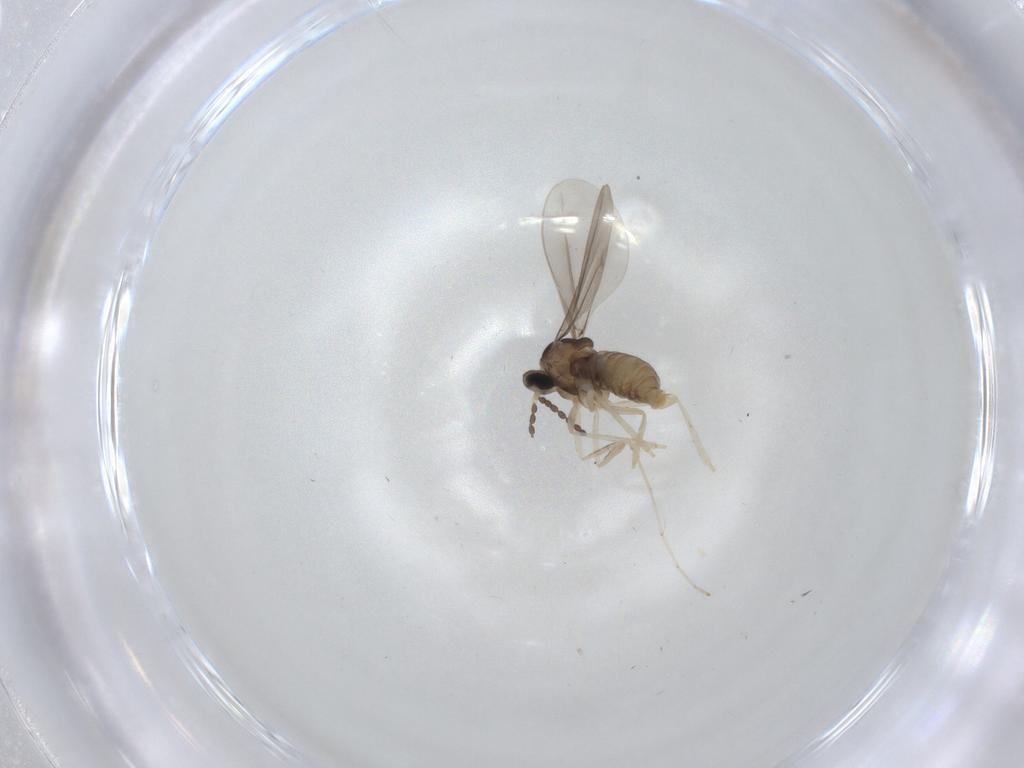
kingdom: Animalia
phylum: Arthropoda
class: Insecta
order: Diptera
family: Cecidomyiidae
